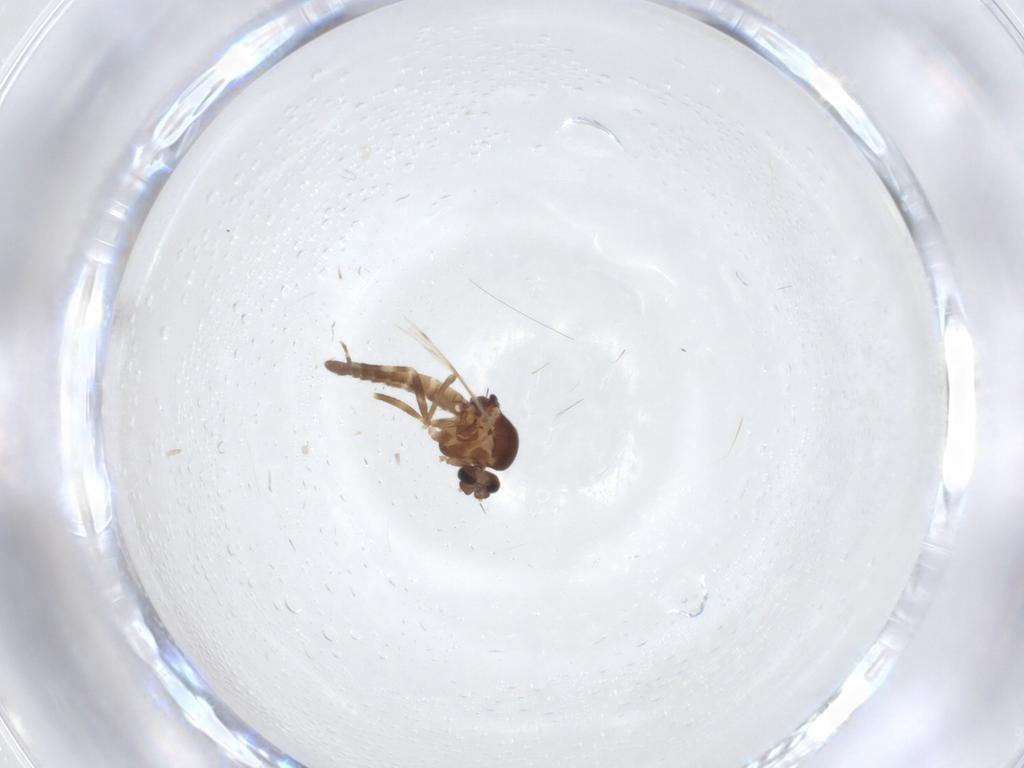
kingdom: Animalia
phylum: Arthropoda
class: Insecta
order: Diptera
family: Ceratopogonidae
